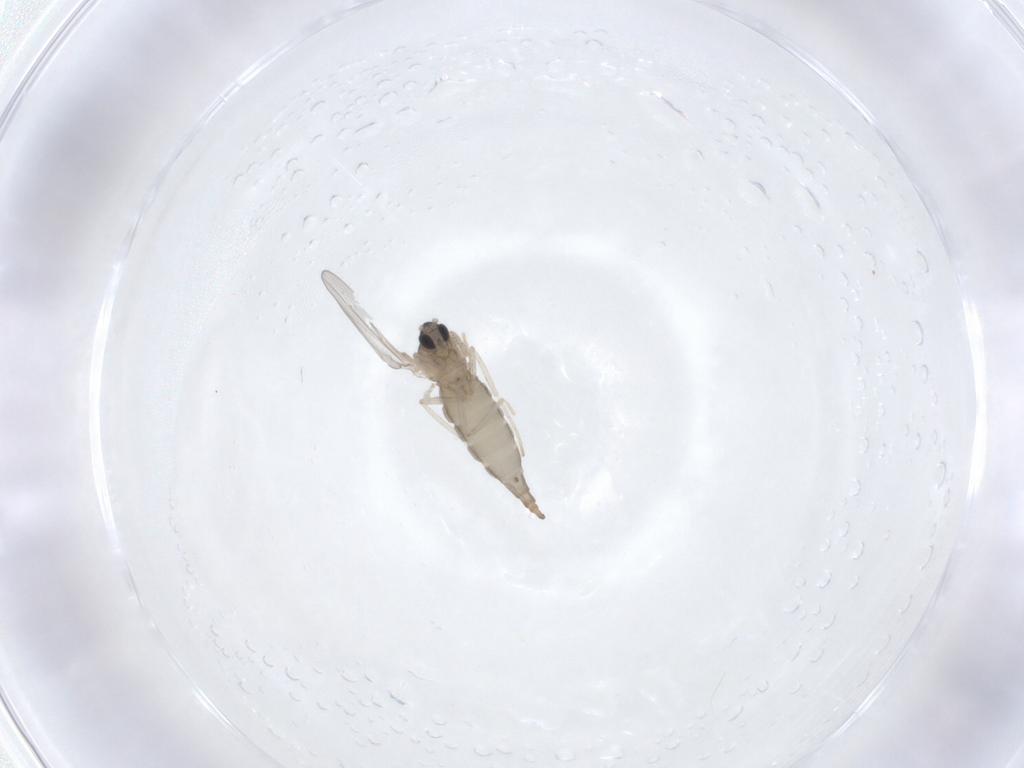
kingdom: Animalia
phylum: Arthropoda
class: Insecta
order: Diptera
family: Cecidomyiidae
